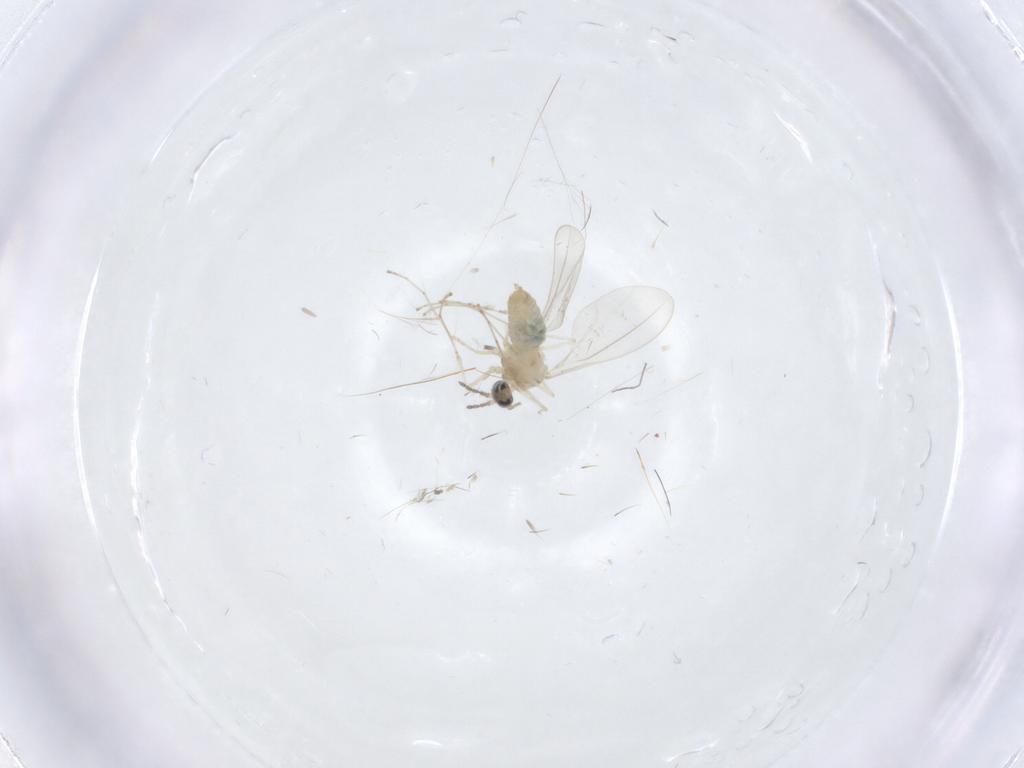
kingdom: Animalia
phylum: Arthropoda
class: Insecta
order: Diptera
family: Cecidomyiidae
